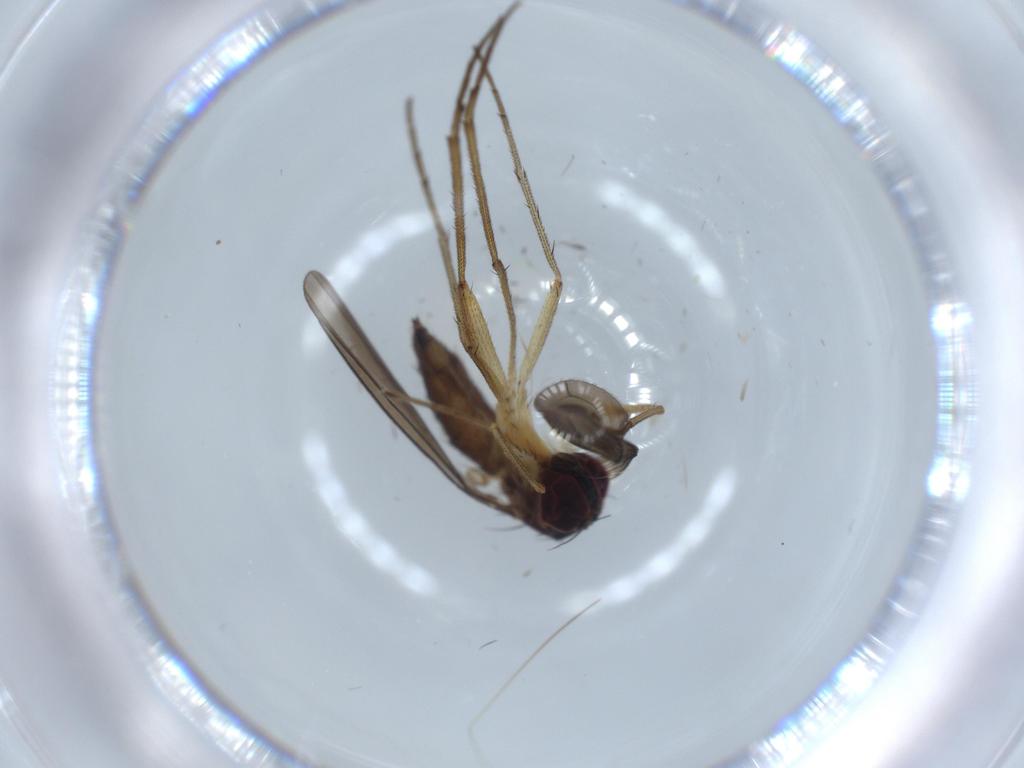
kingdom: Animalia
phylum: Arthropoda
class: Insecta
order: Diptera
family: Dolichopodidae
